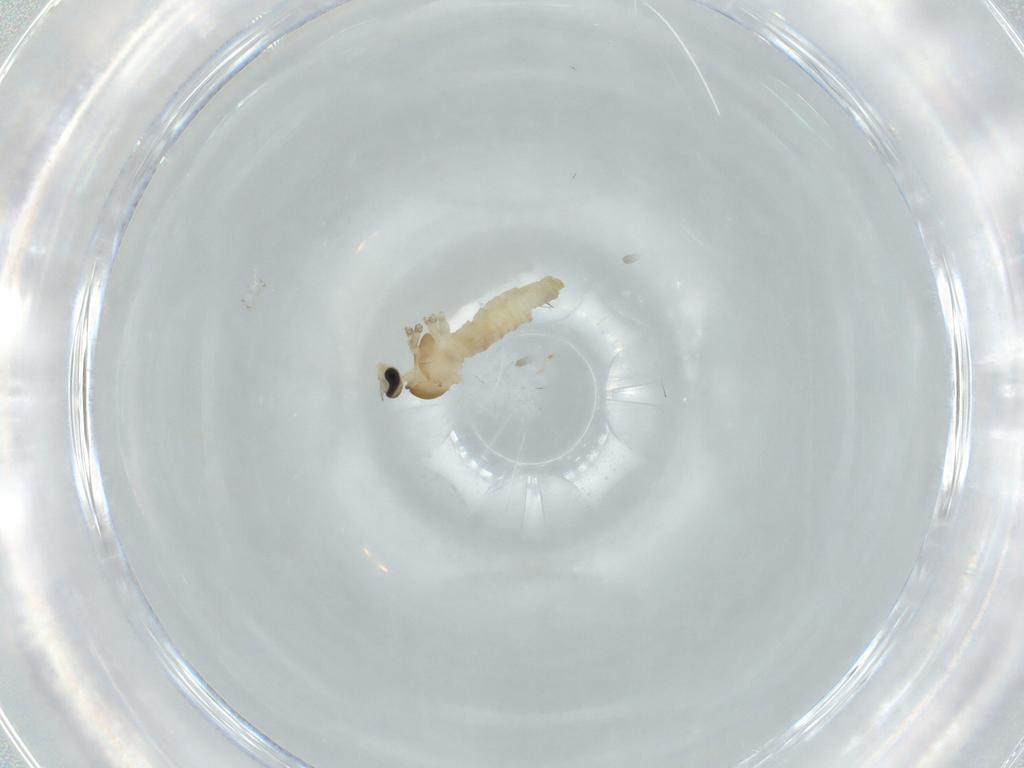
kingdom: Animalia
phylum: Arthropoda
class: Insecta
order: Diptera
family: Cecidomyiidae
